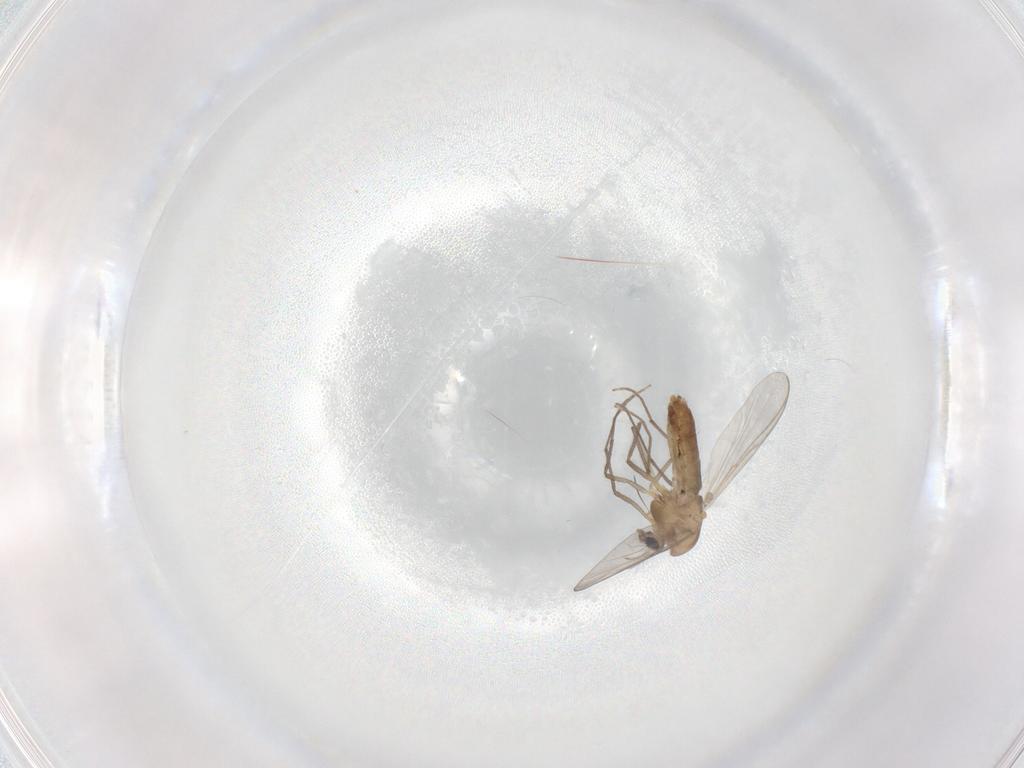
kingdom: Animalia
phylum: Arthropoda
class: Insecta
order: Diptera
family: Chironomidae
